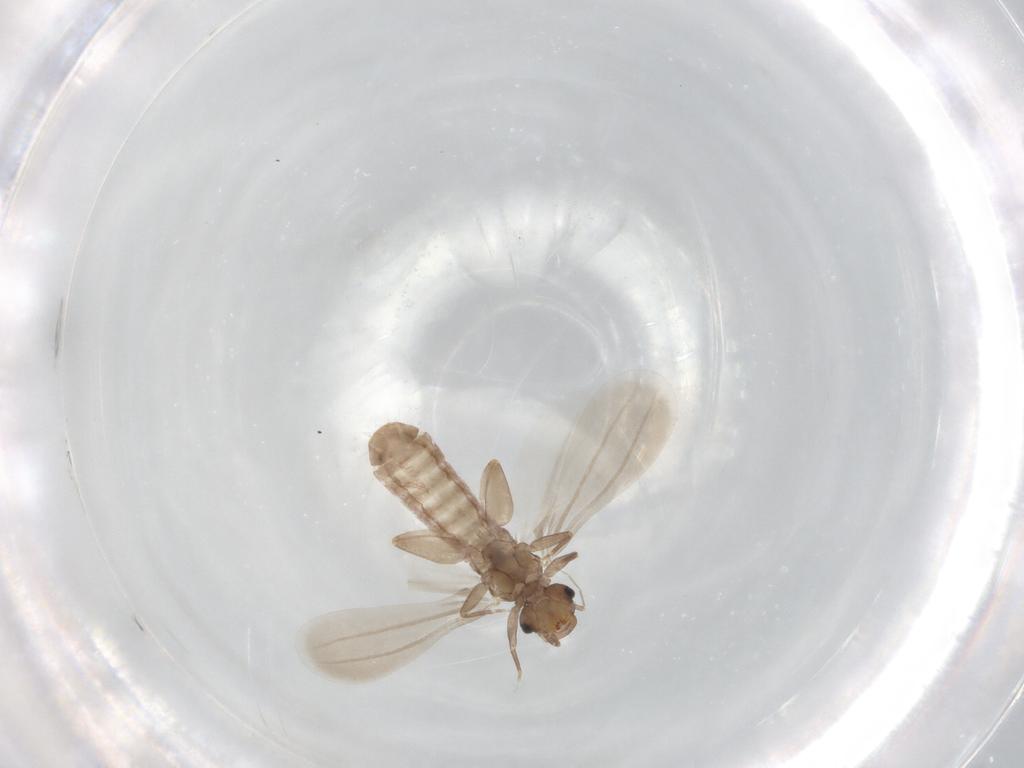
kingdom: Animalia
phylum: Arthropoda
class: Insecta
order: Psocodea
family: Liposcelididae
